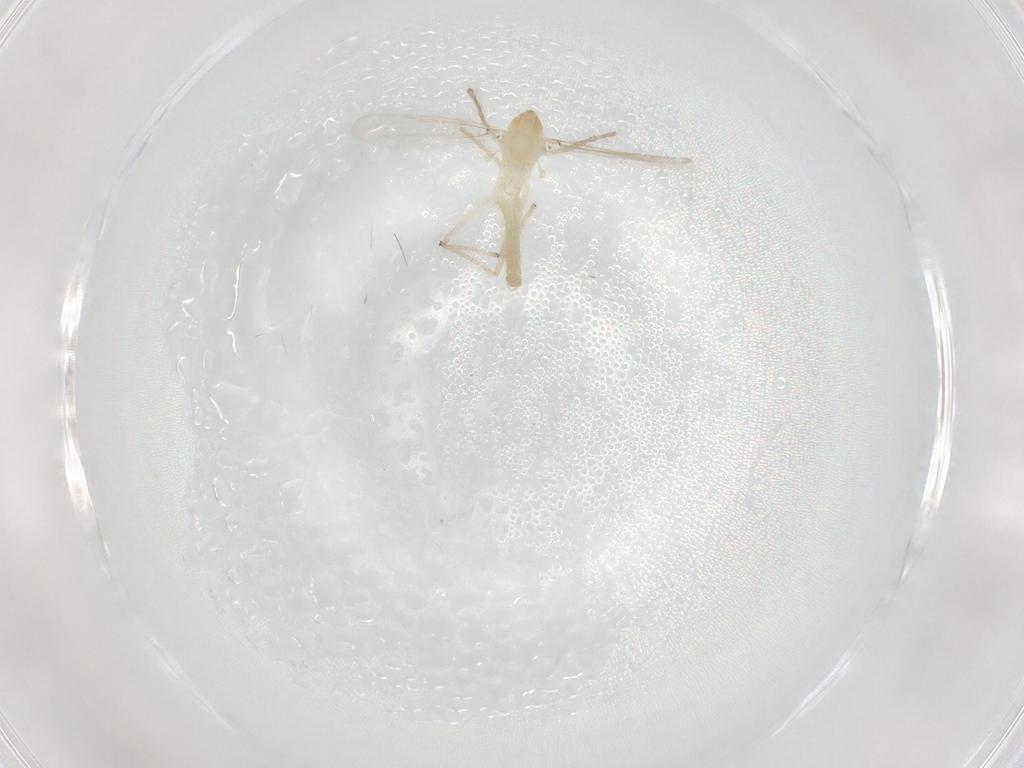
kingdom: Animalia
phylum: Arthropoda
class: Insecta
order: Diptera
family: Chironomidae
